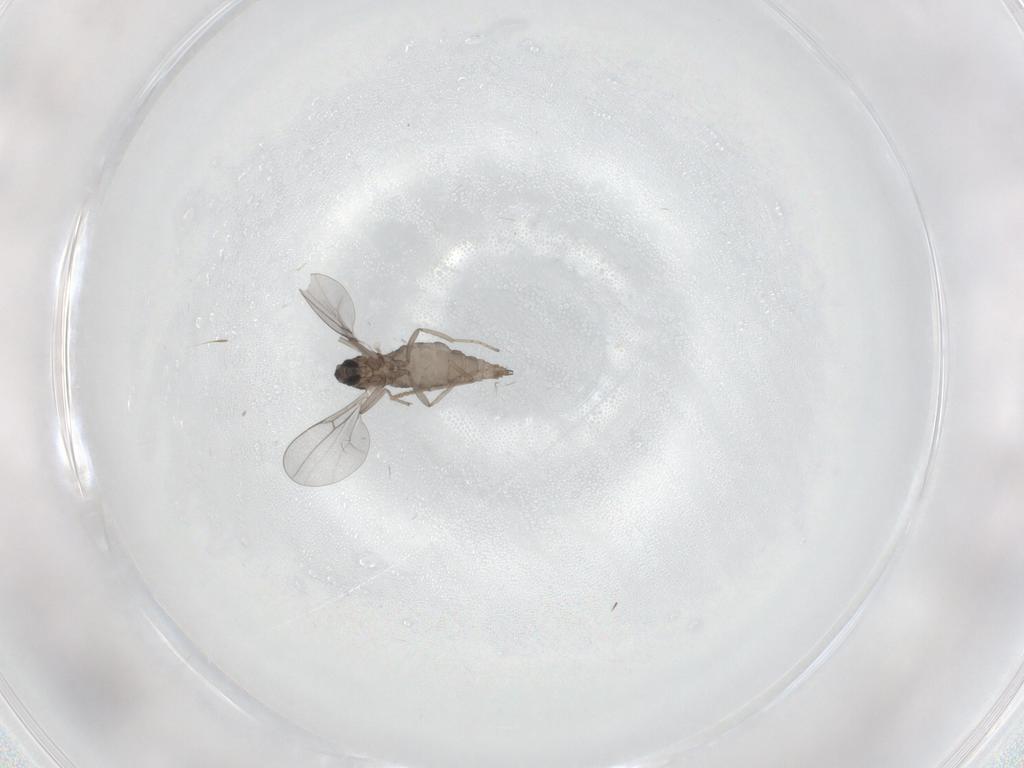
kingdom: Animalia
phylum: Arthropoda
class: Insecta
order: Diptera
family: Cecidomyiidae
